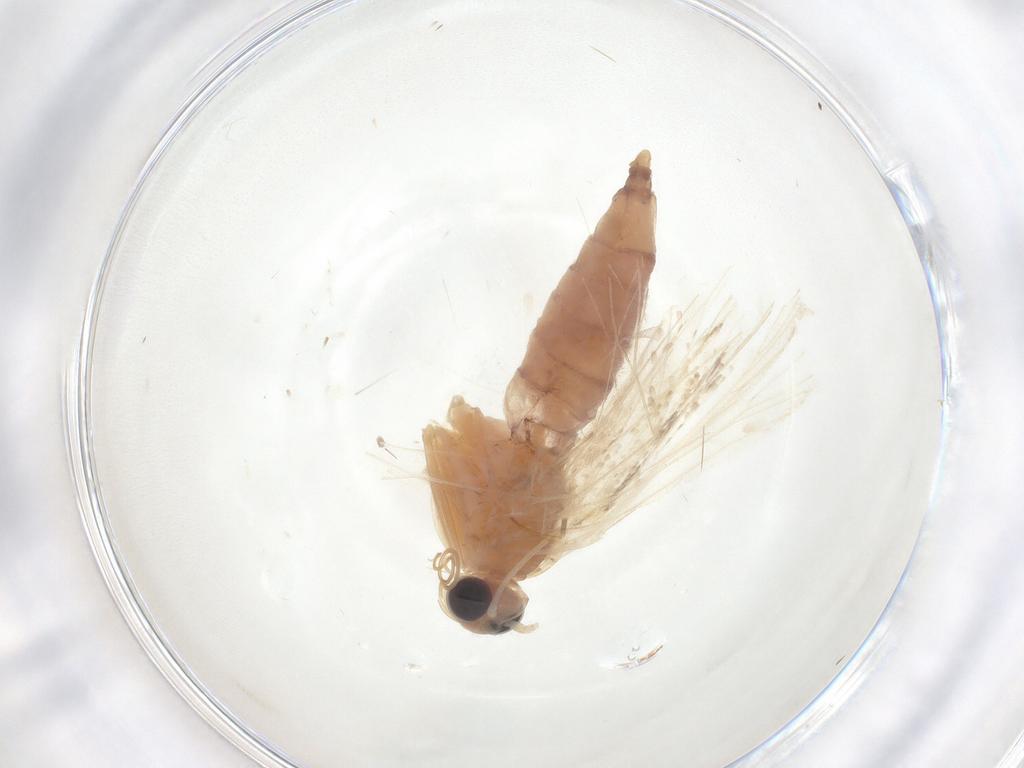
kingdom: Animalia
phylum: Arthropoda
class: Insecta
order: Lepidoptera
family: Crambidae
